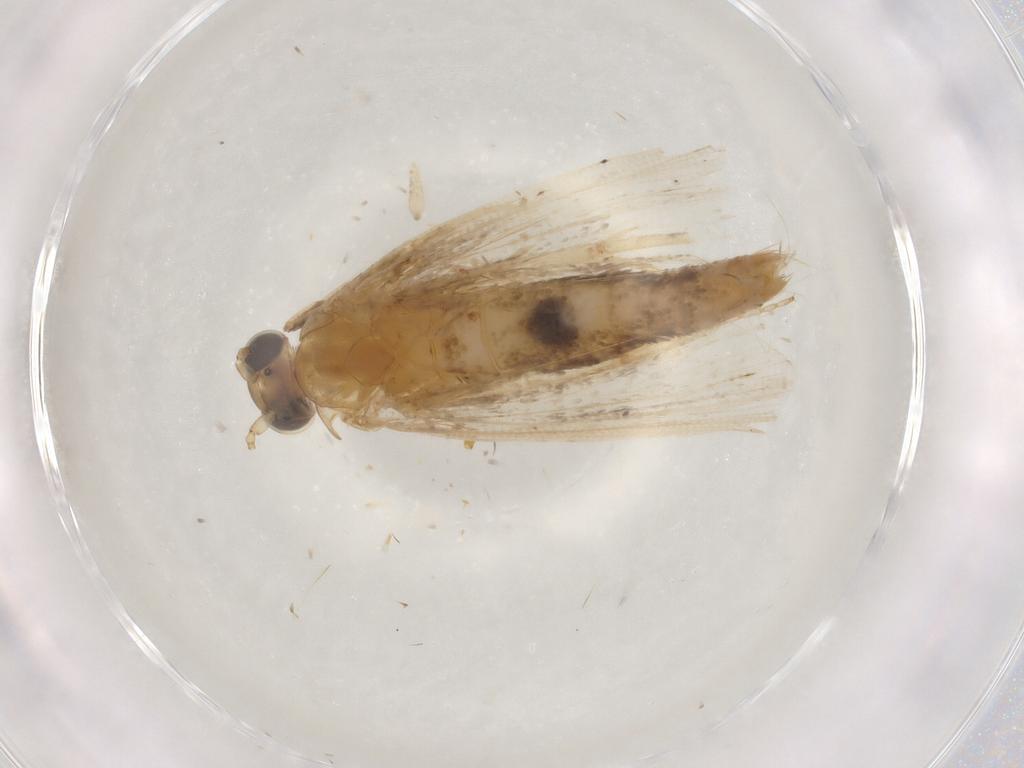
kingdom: Animalia
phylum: Arthropoda
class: Insecta
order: Lepidoptera
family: Tortricidae
